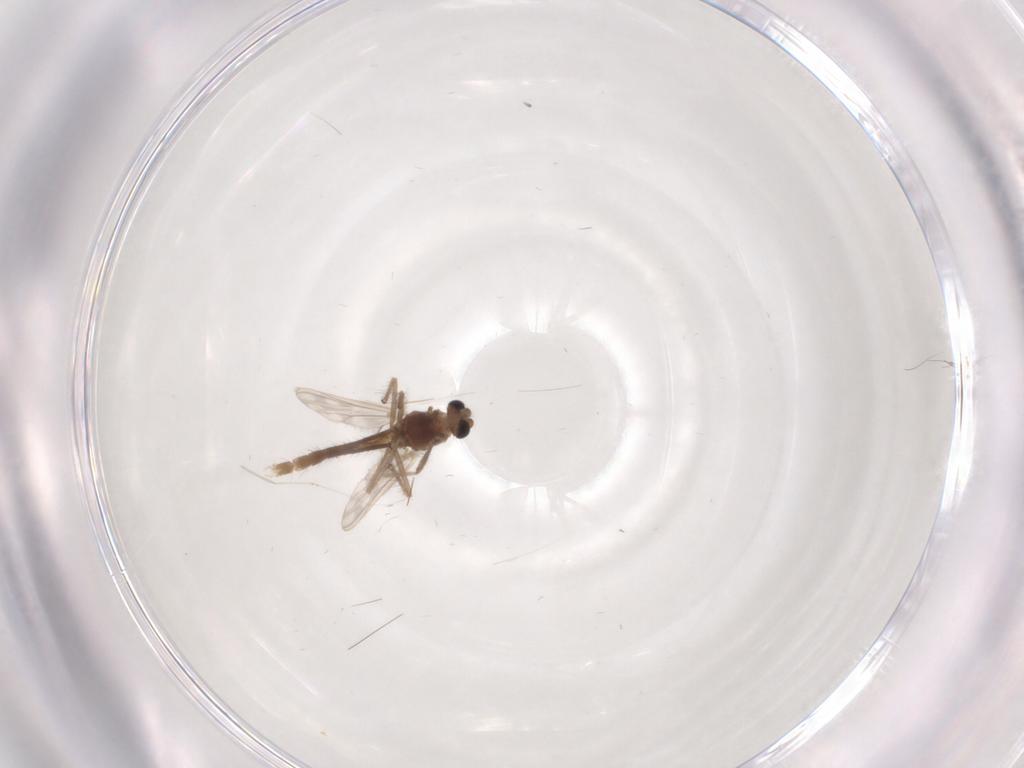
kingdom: Animalia
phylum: Arthropoda
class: Insecta
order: Diptera
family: Chironomidae
